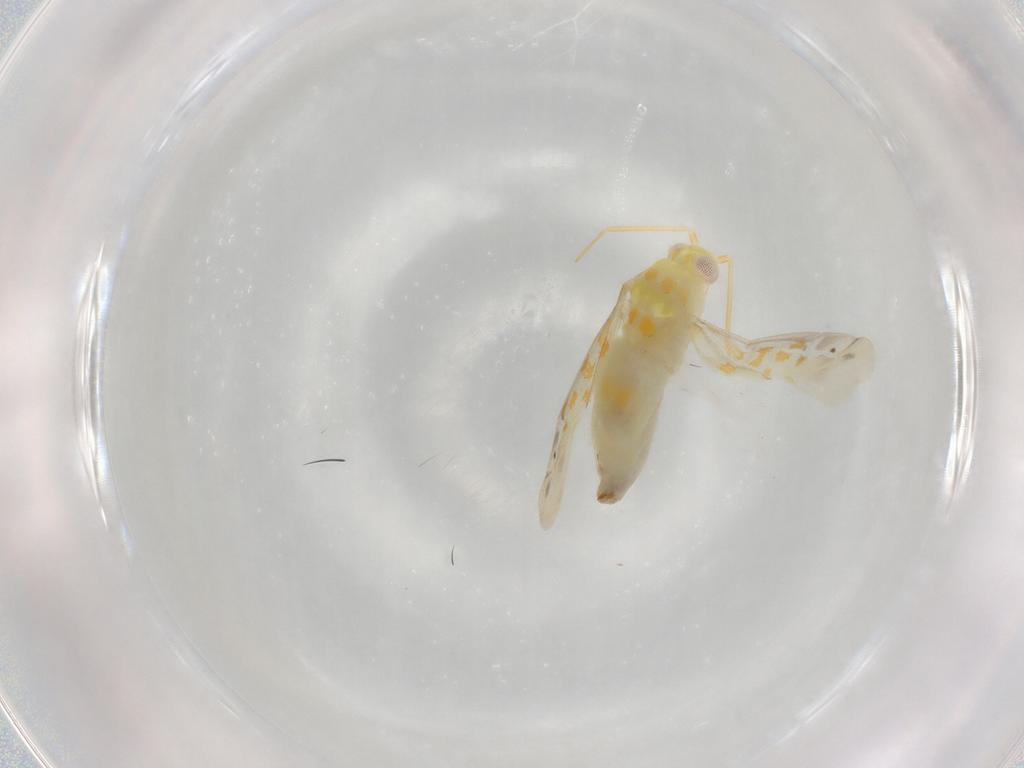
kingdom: Animalia
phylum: Arthropoda
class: Insecta
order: Hemiptera
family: Miridae
